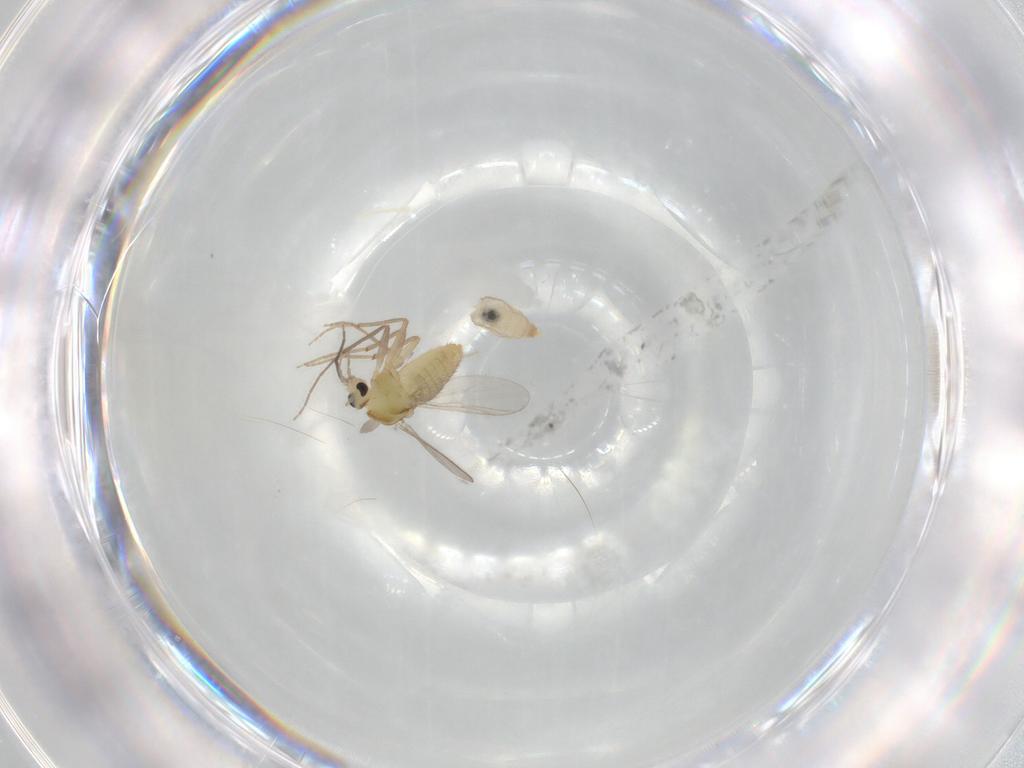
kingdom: Animalia
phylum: Arthropoda
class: Insecta
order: Diptera
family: Chironomidae
